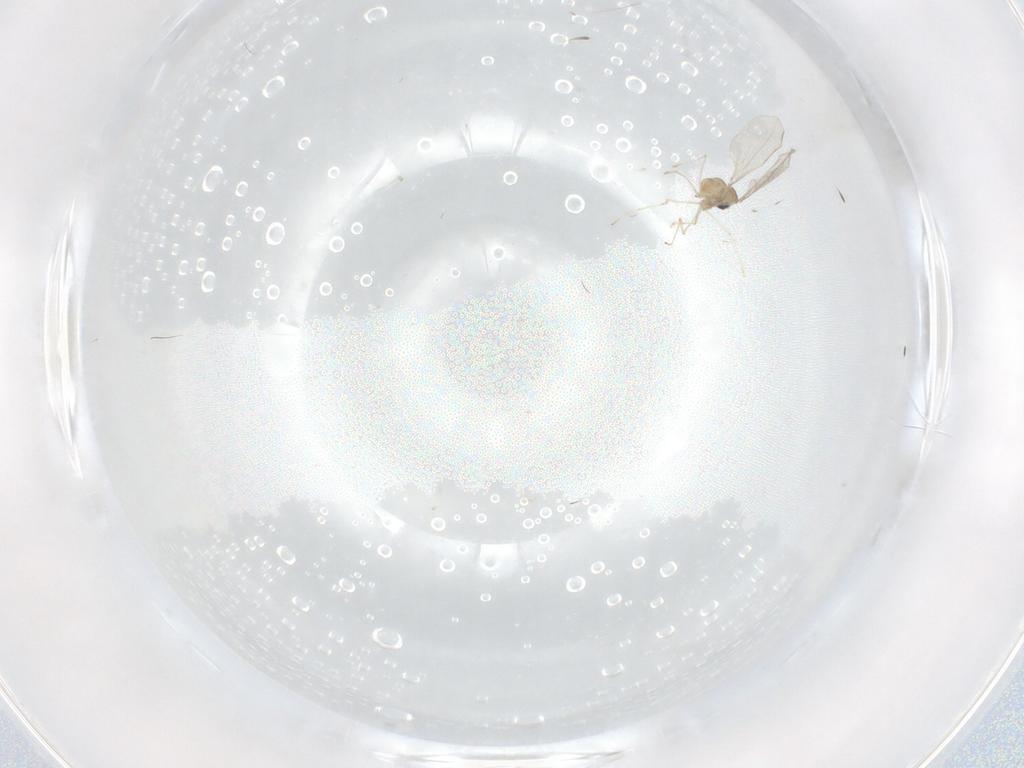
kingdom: Animalia
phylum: Arthropoda
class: Insecta
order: Diptera
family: Sciaridae
